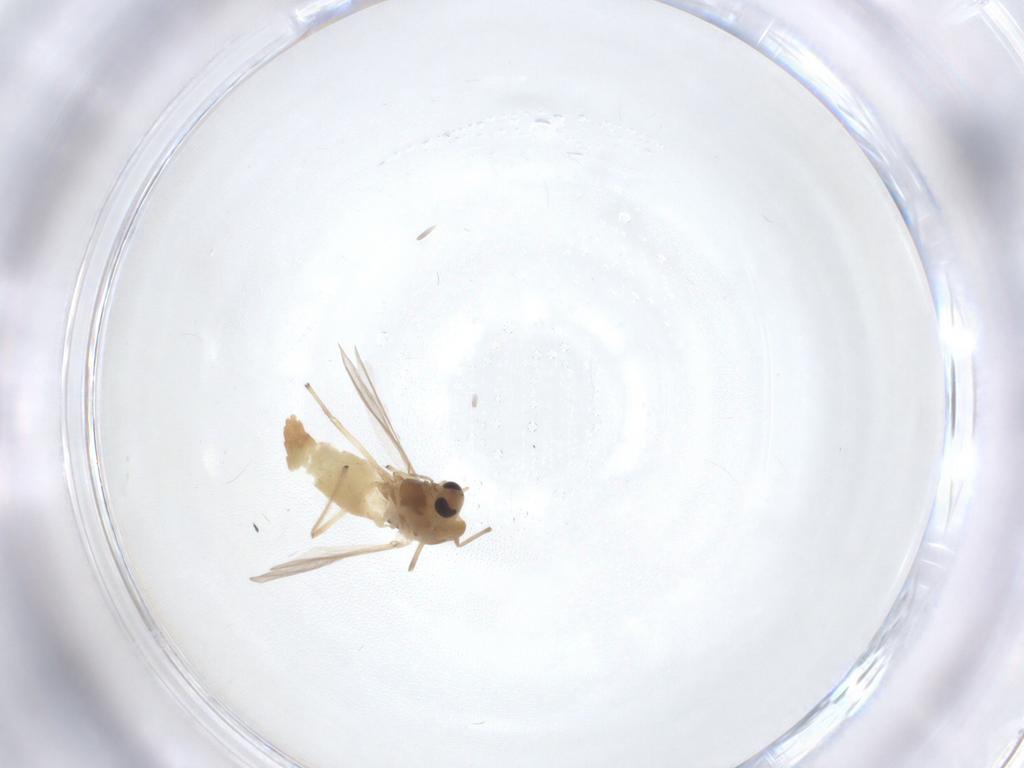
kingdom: Animalia
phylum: Arthropoda
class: Insecta
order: Diptera
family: Chironomidae
